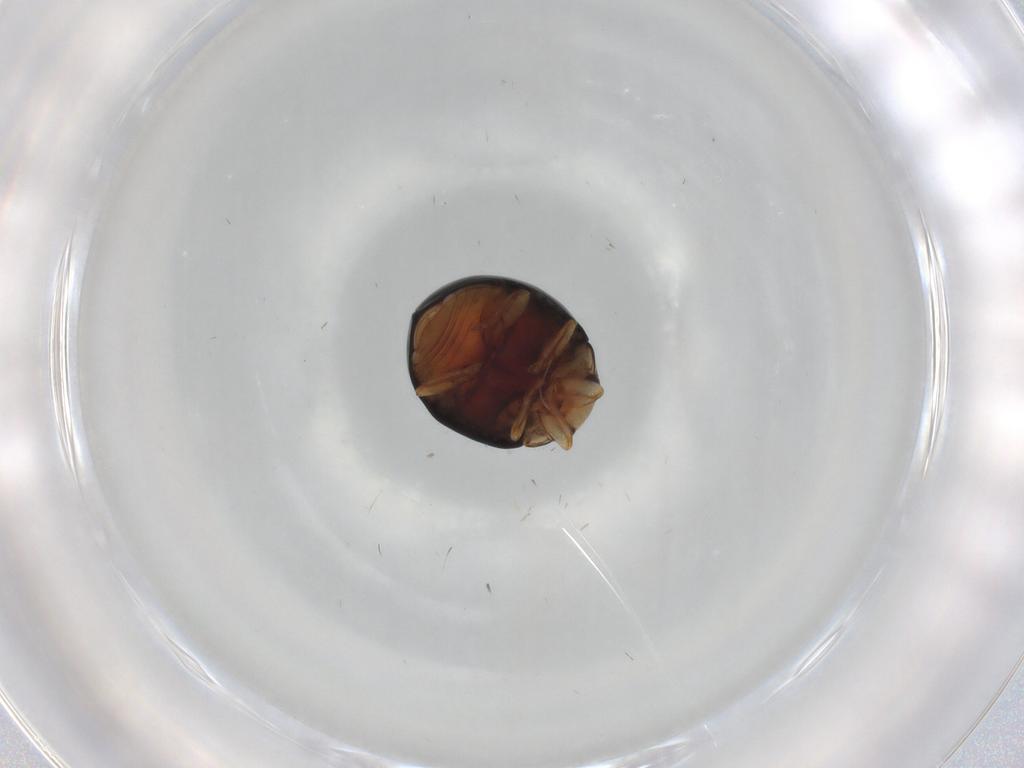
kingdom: Animalia
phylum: Arthropoda
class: Insecta
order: Coleoptera
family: Coccinellidae
